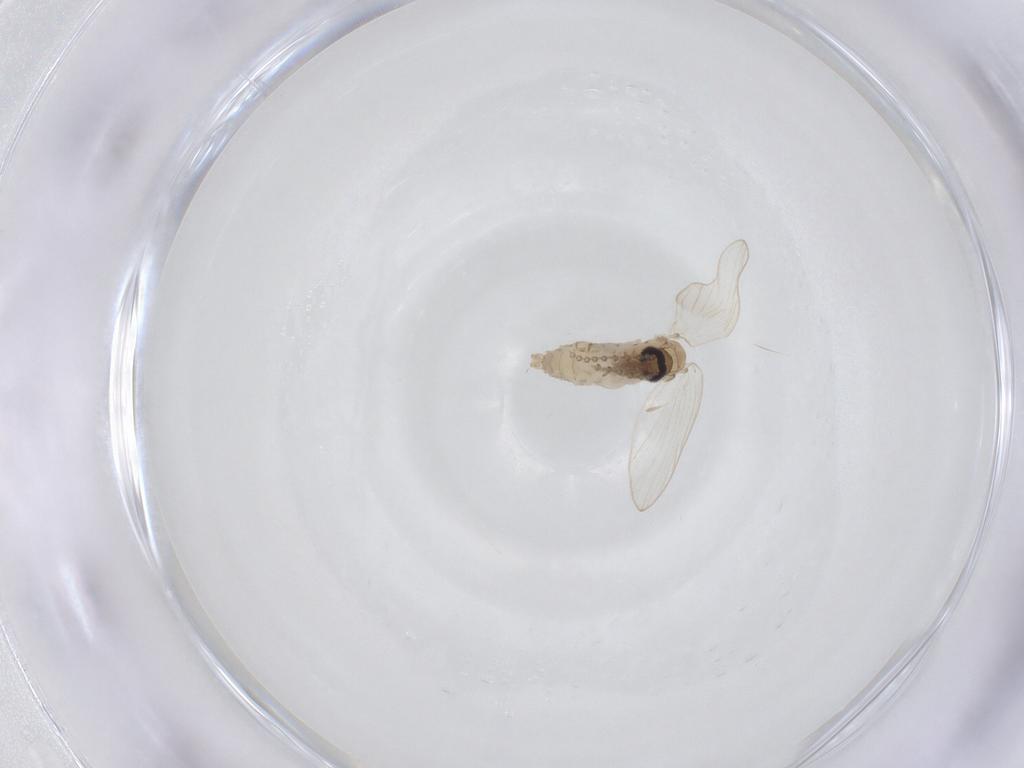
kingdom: Animalia
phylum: Arthropoda
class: Insecta
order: Diptera
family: Psychodidae
